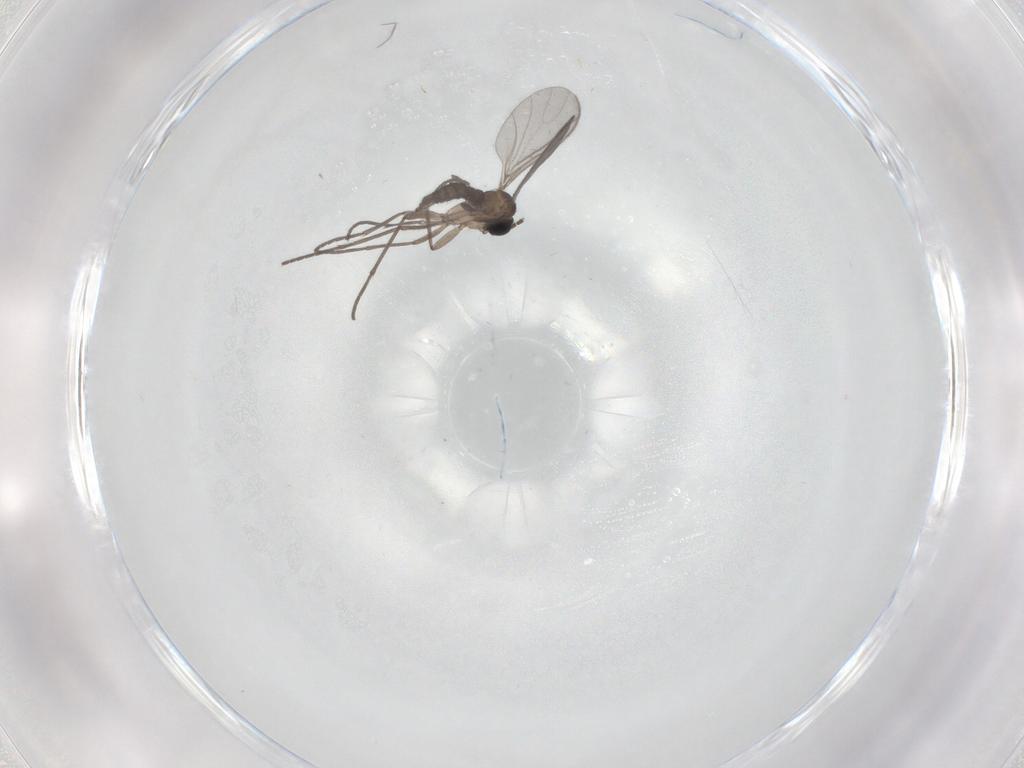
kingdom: Animalia
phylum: Arthropoda
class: Insecta
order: Diptera
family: Sciaridae
